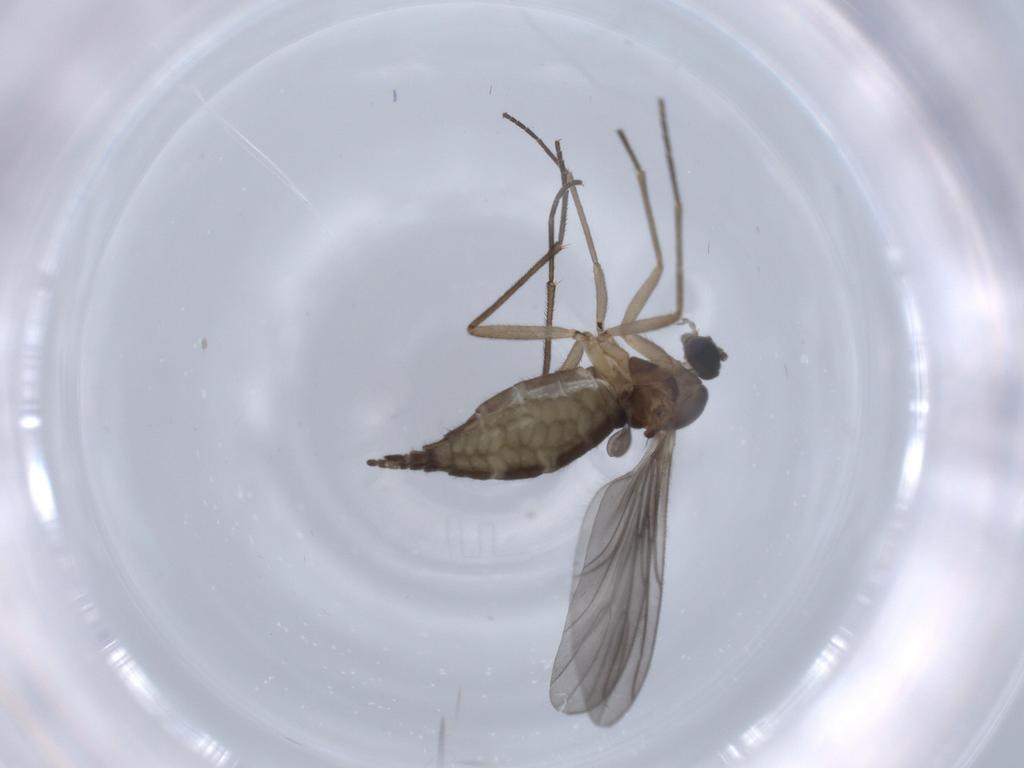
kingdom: Animalia
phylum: Arthropoda
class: Insecta
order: Diptera
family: Sciaridae
